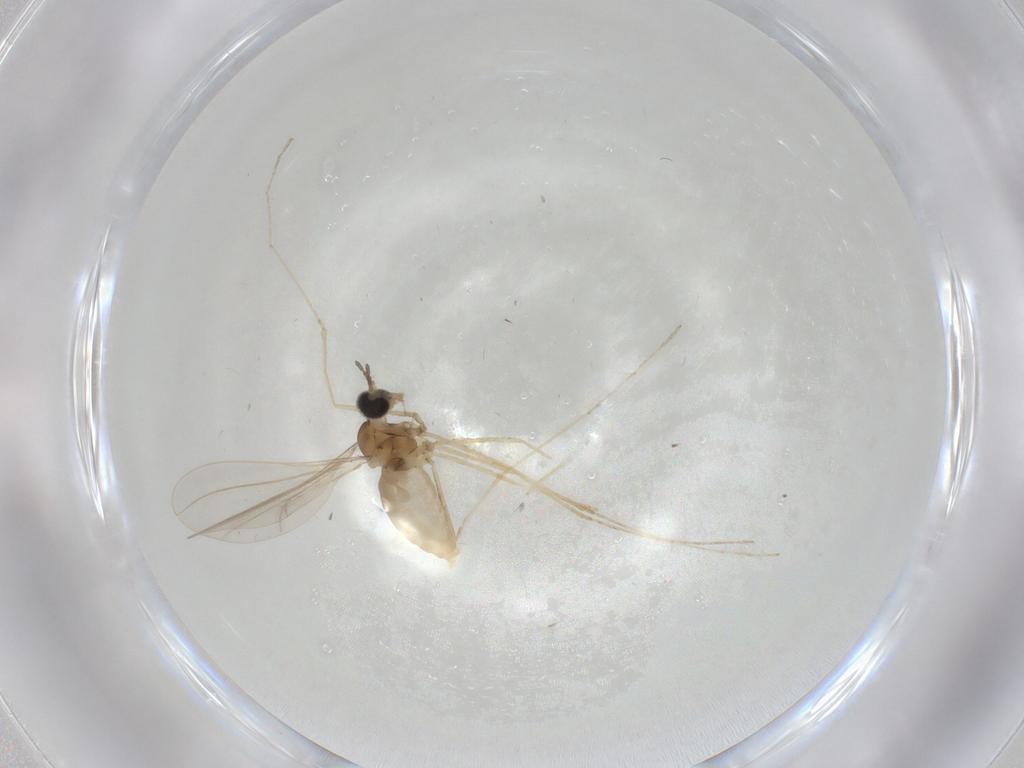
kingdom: Animalia
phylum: Arthropoda
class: Insecta
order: Diptera
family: Cecidomyiidae
